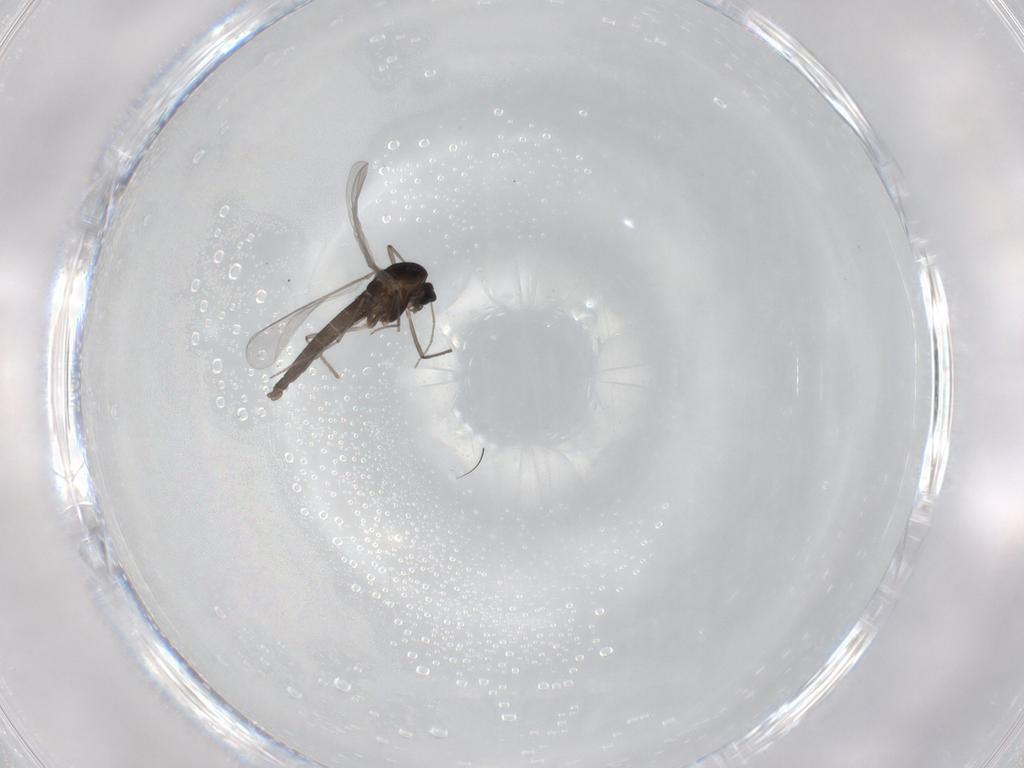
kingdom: Animalia
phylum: Arthropoda
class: Insecta
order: Diptera
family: Chironomidae
